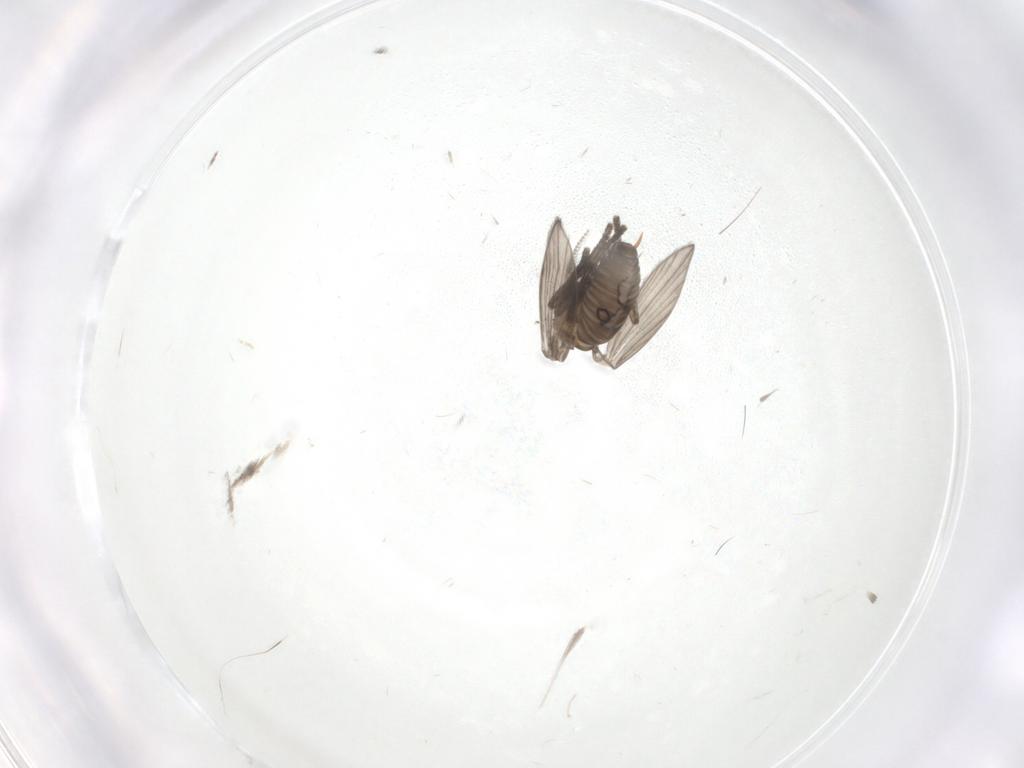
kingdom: Animalia
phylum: Arthropoda
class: Insecta
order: Diptera
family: Psychodidae
